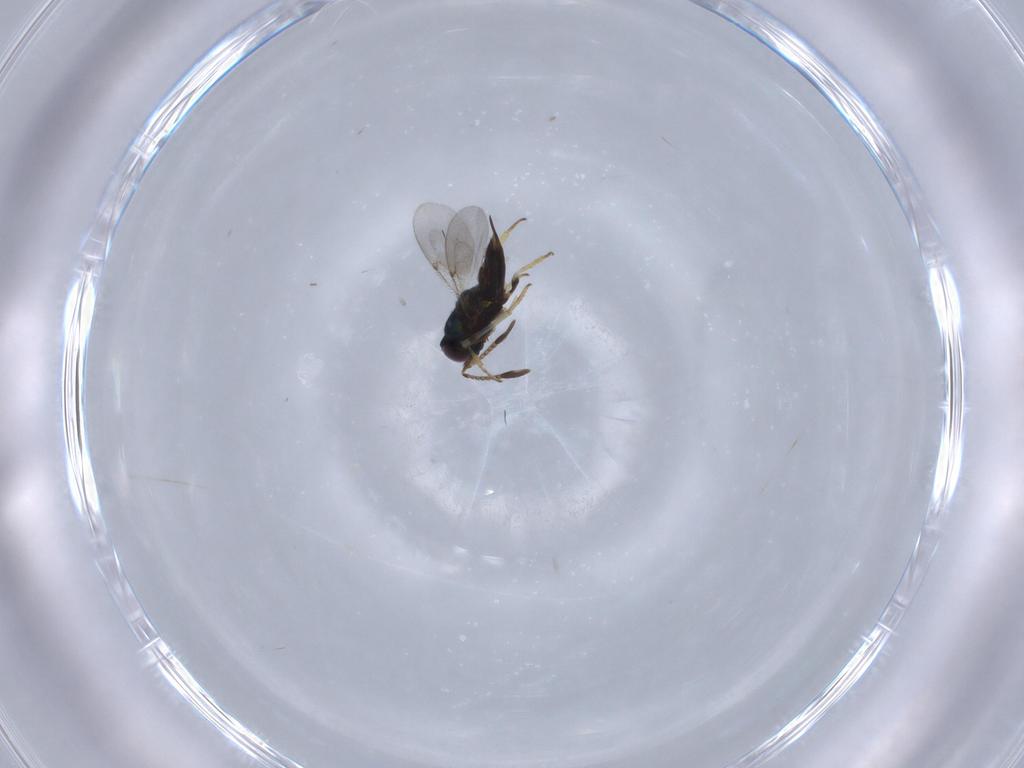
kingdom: Animalia
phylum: Arthropoda
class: Insecta
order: Hymenoptera
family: Encyrtidae
